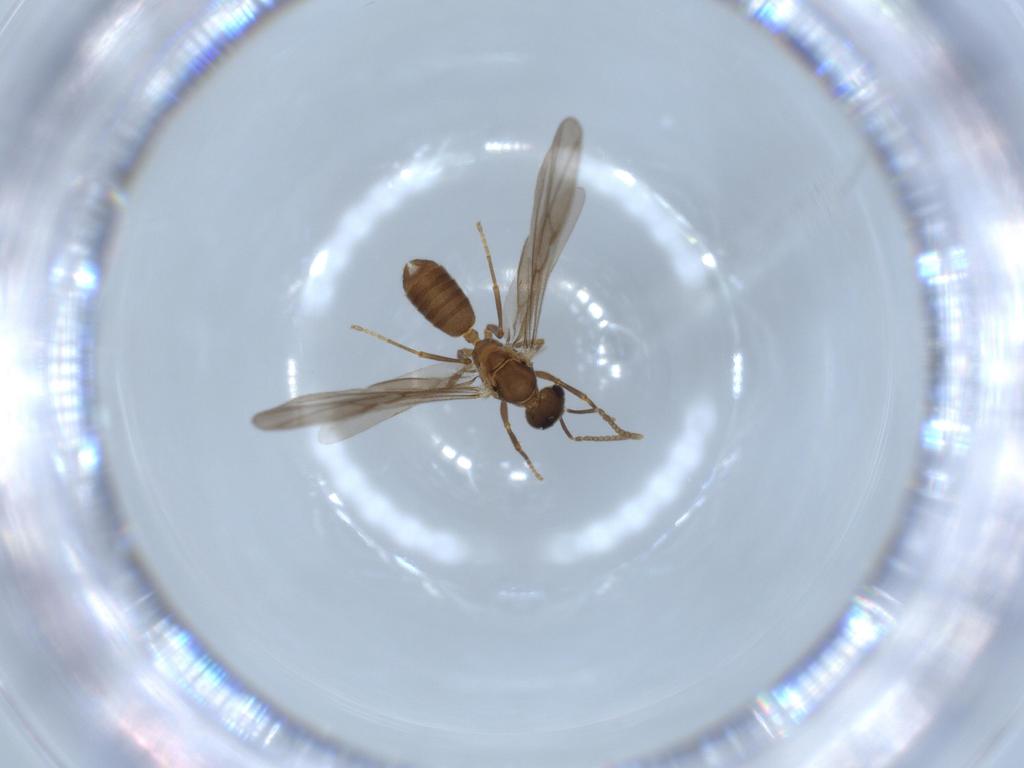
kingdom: Animalia
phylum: Arthropoda
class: Insecta
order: Hymenoptera
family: Formicidae
